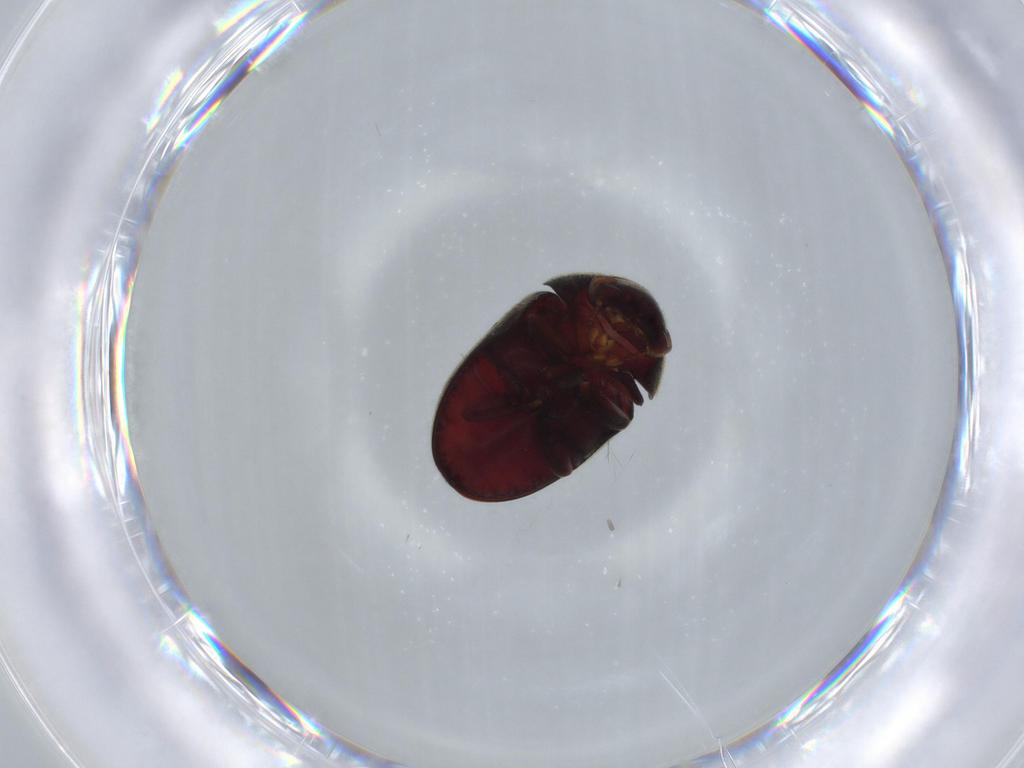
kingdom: Animalia
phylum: Arthropoda
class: Insecta
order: Coleoptera
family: Ptinidae
